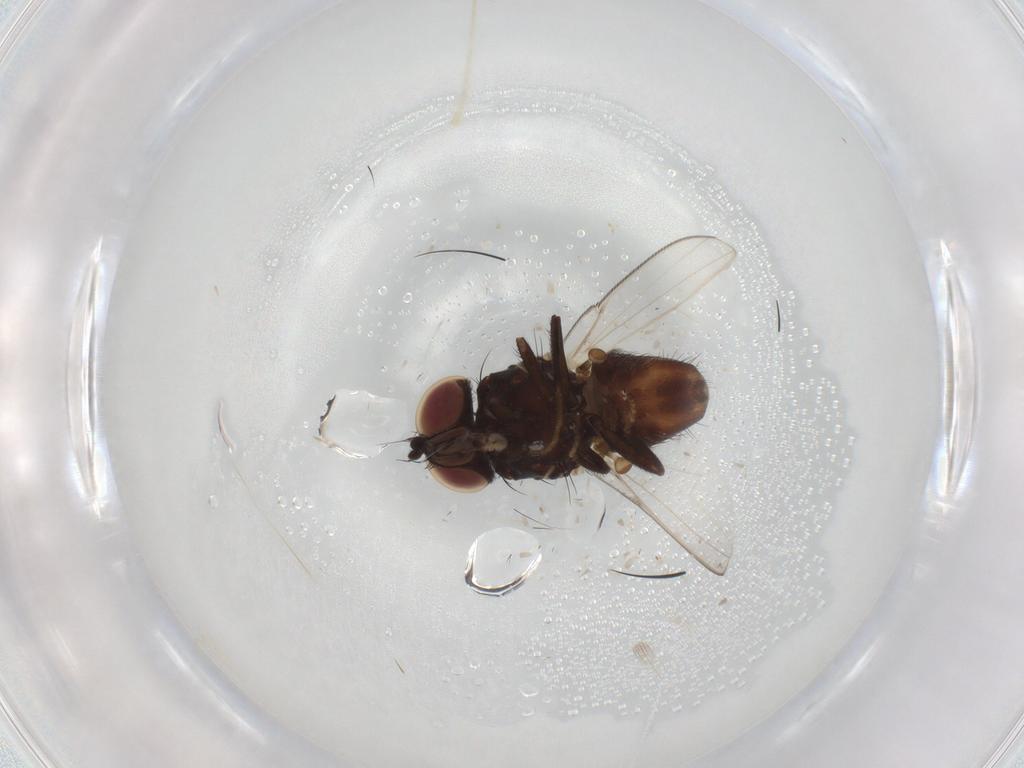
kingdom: Animalia
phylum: Arthropoda
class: Insecta
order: Diptera
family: Milichiidae
